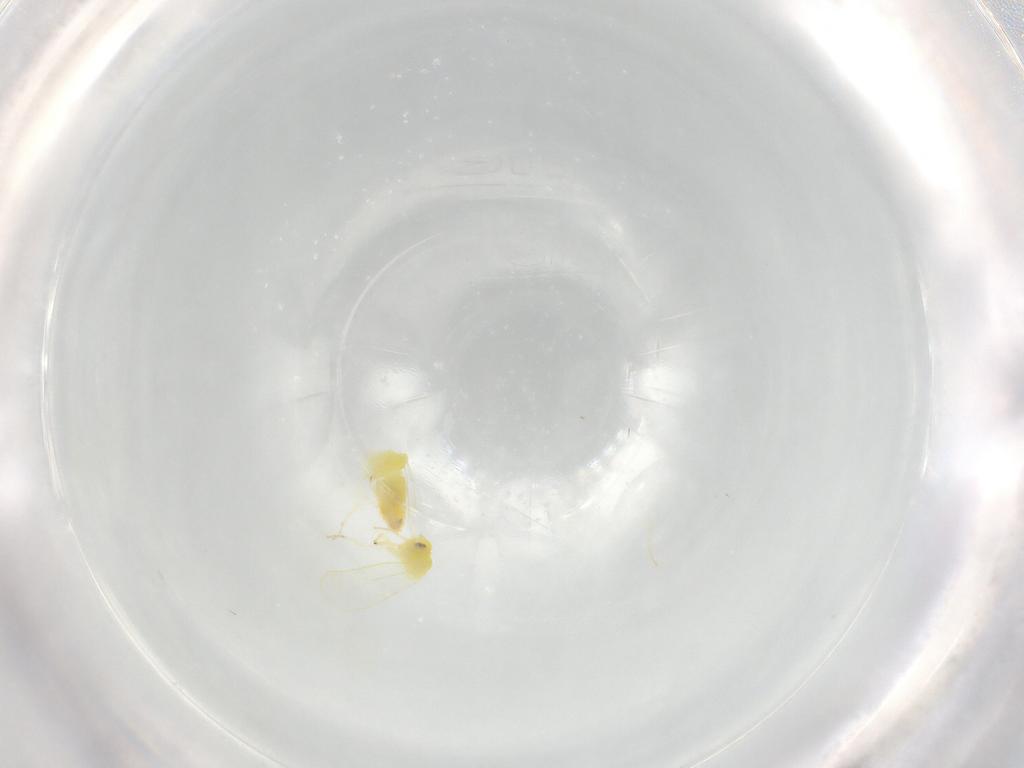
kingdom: Animalia
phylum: Arthropoda
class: Insecta
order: Hemiptera
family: Aleyrodidae
